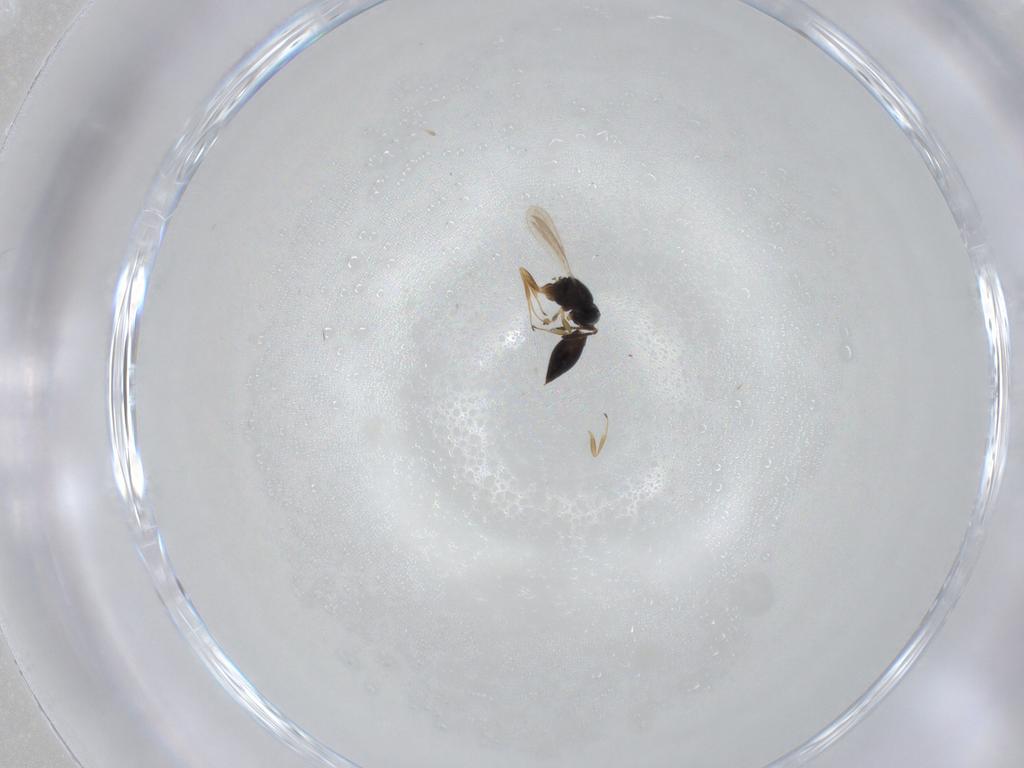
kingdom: Animalia
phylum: Arthropoda
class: Insecta
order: Hymenoptera
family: Scelionidae
